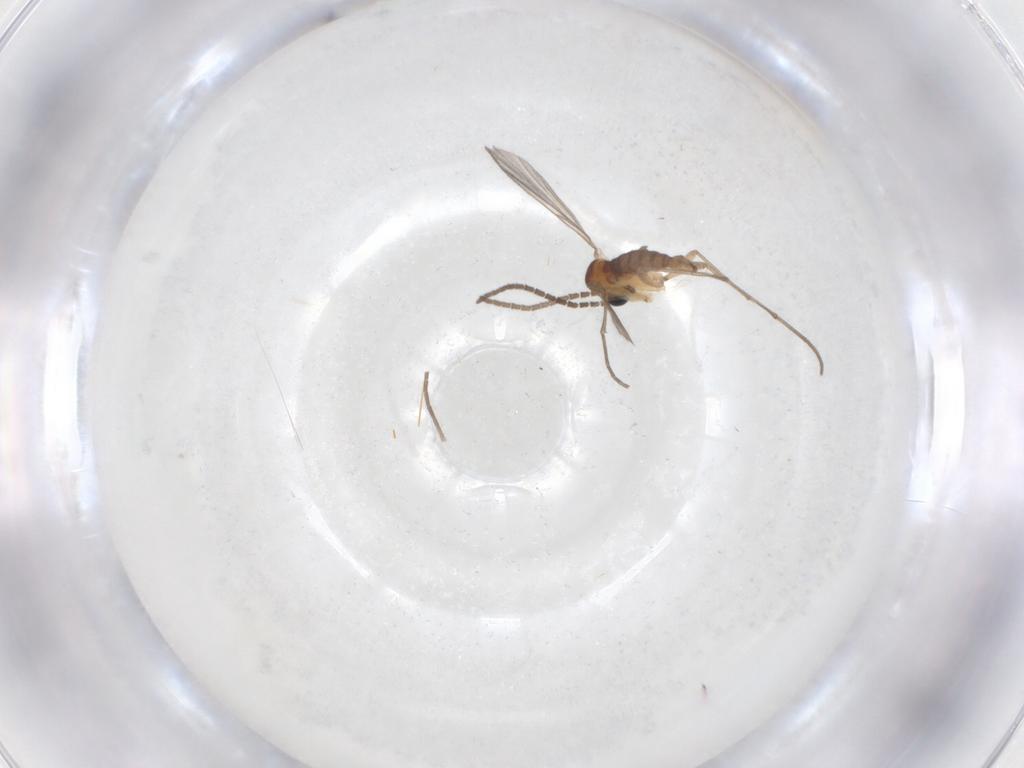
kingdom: Animalia
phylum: Arthropoda
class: Insecta
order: Diptera
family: Sciaridae
